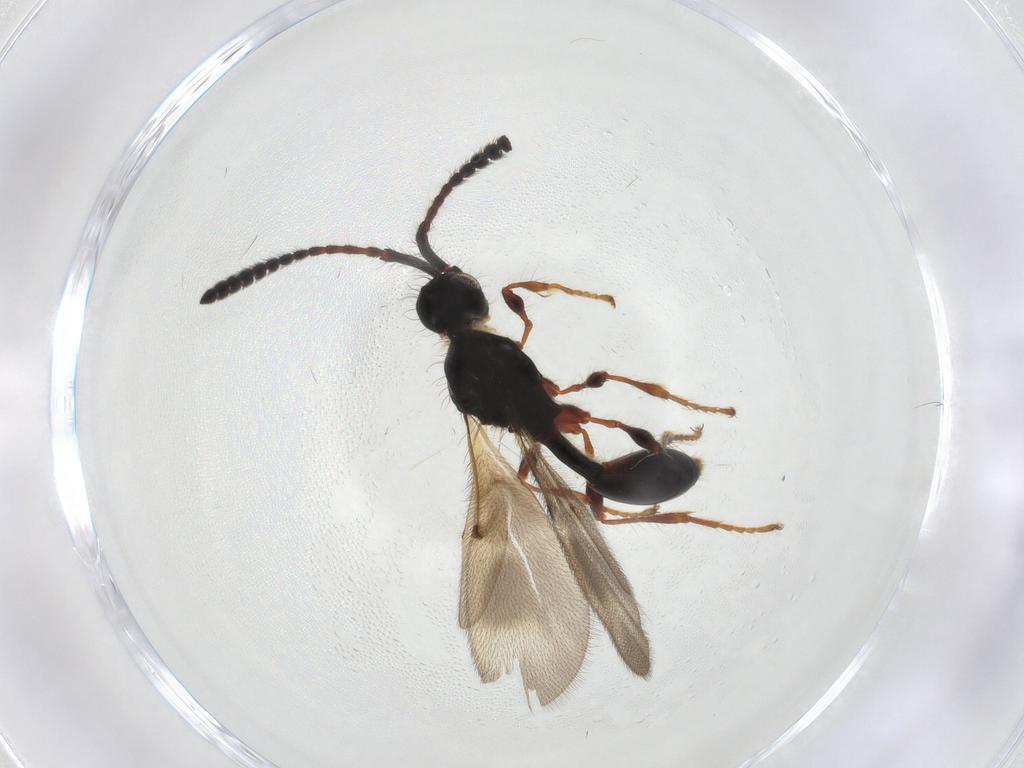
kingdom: Animalia
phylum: Arthropoda
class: Insecta
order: Hymenoptera
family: Diapriidae
